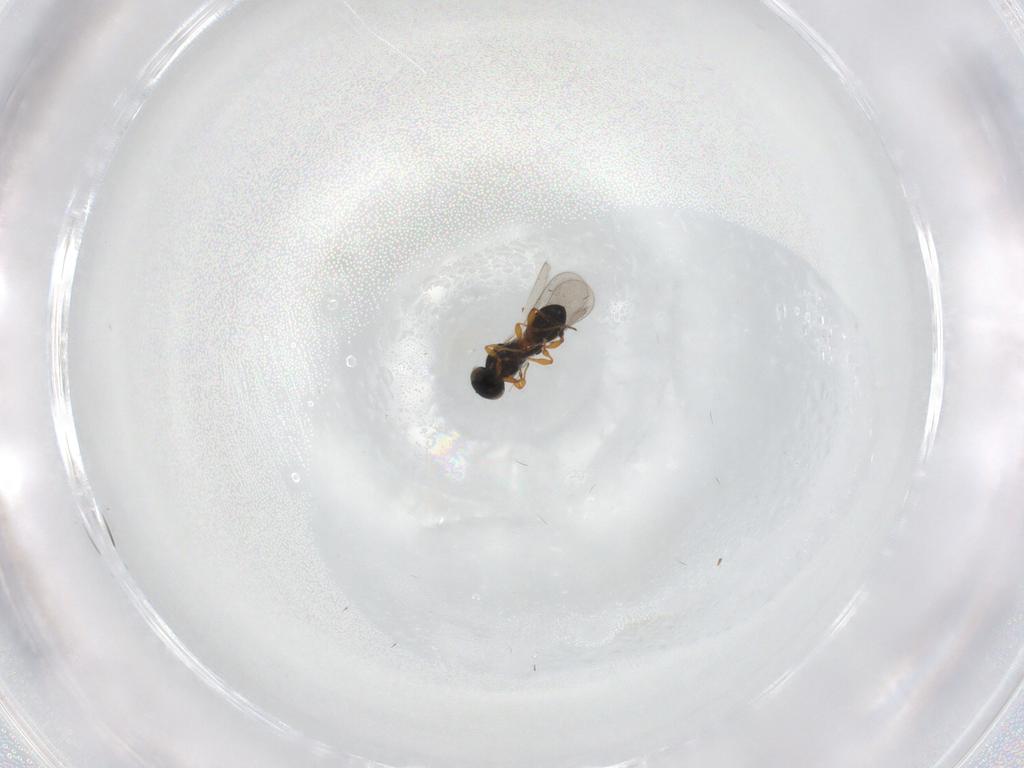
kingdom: Animalia
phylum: Arthropoda
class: Insecta
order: Hymenoptera
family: Platygastridae
